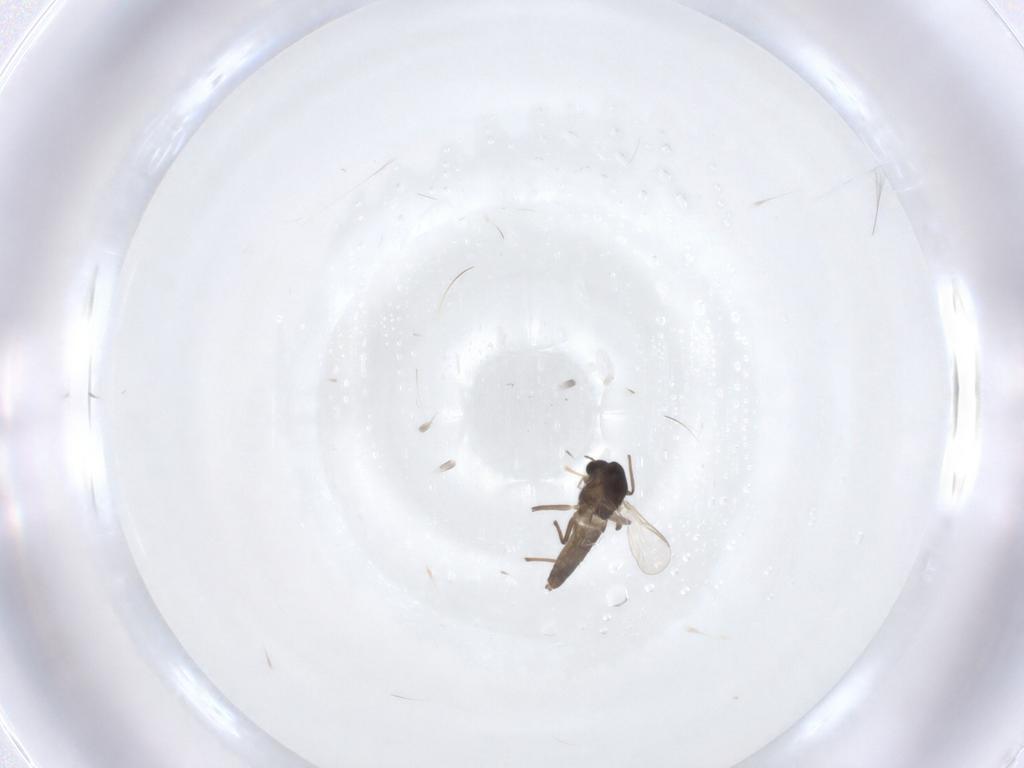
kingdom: Animalia
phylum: Arthropoda
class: Insecta
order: Diptera
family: Chironomidae
